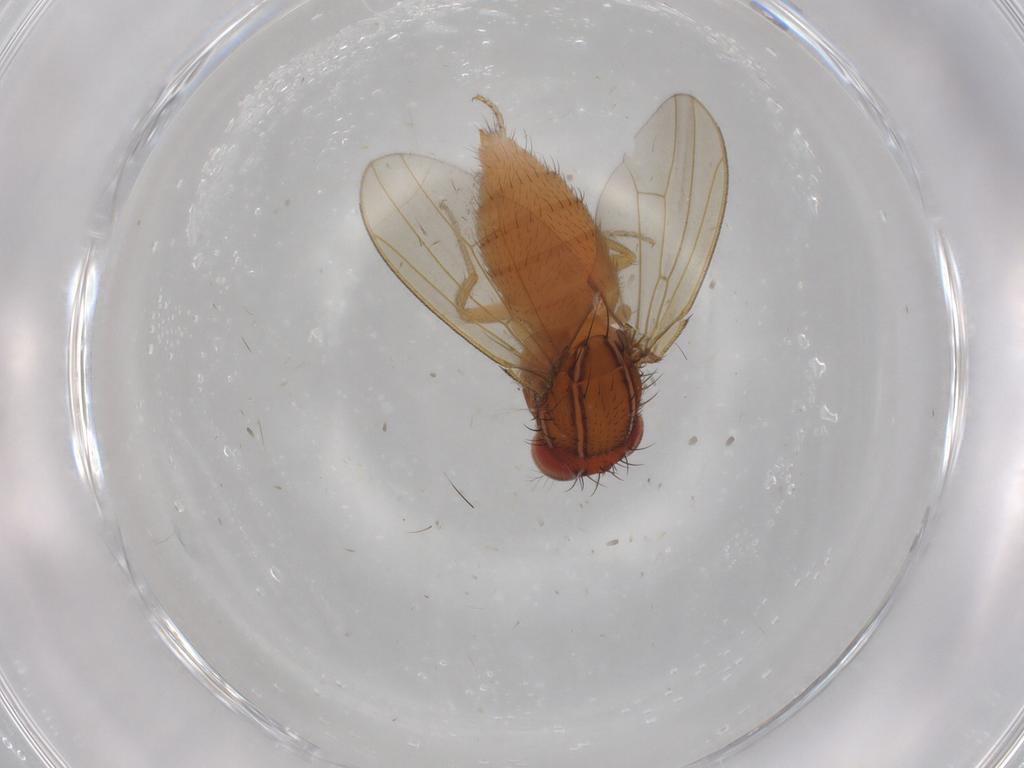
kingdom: Animalia
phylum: Arthropoda
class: Insecta
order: Diptera
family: Drosophilidae
